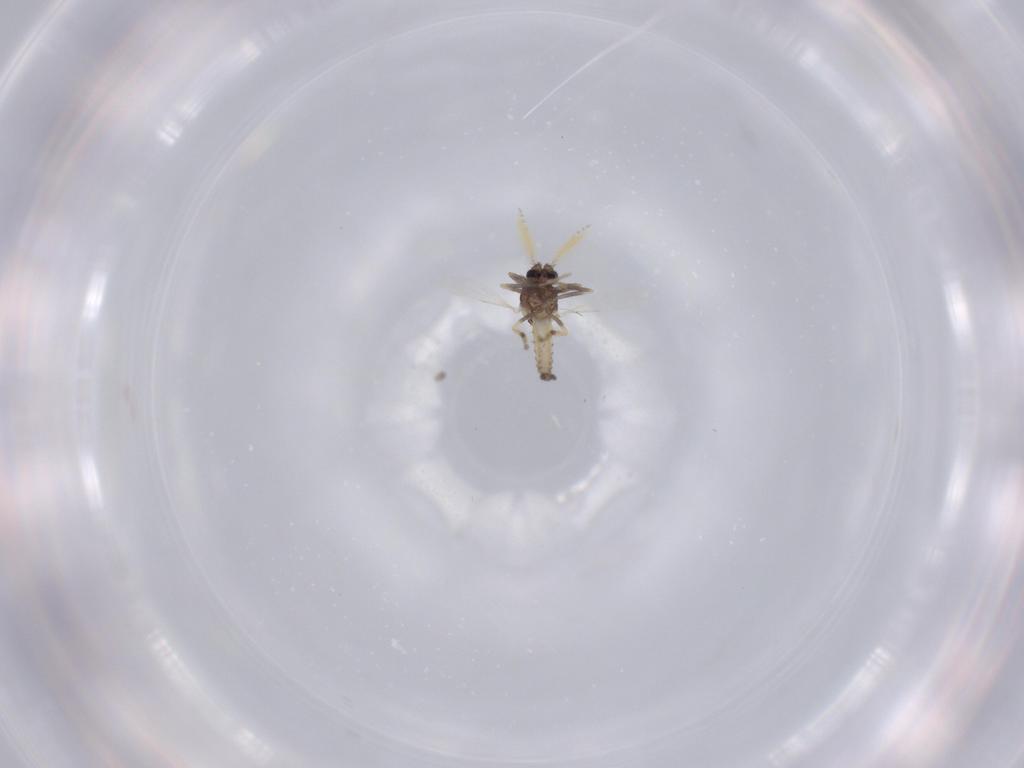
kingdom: Animalia
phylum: Arthropoda
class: Insecta
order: Diptera
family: Ceratopogonidae
